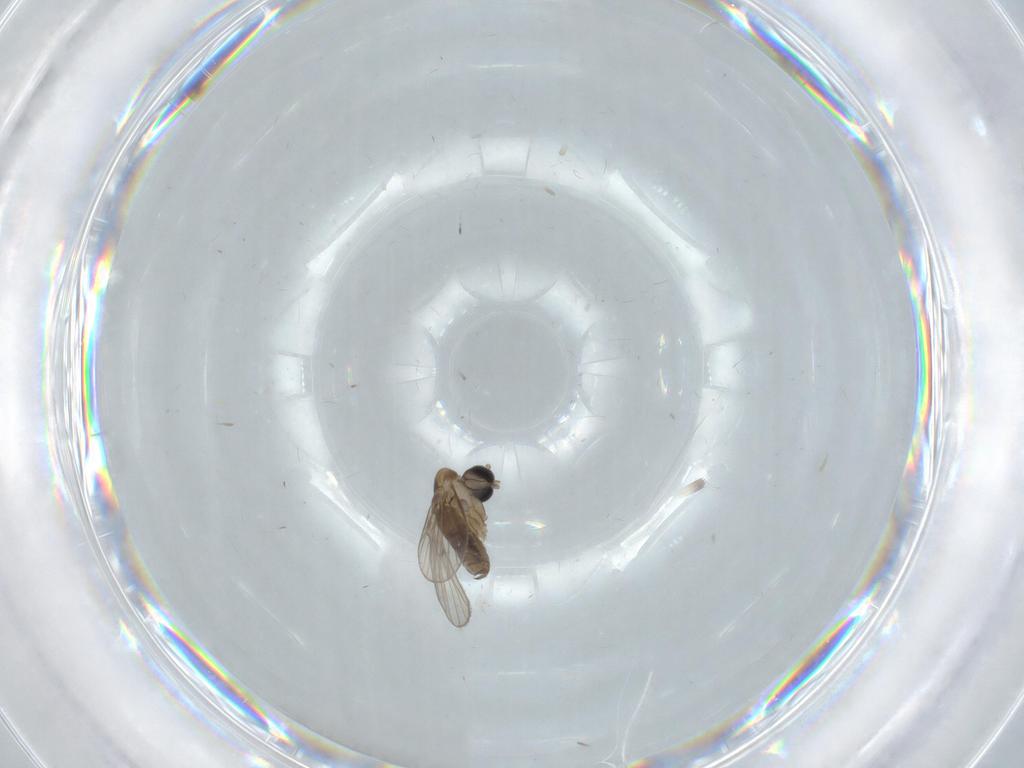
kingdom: Animalia
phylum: Arthropoda
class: Insecta
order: Diptera
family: Psychodidae
